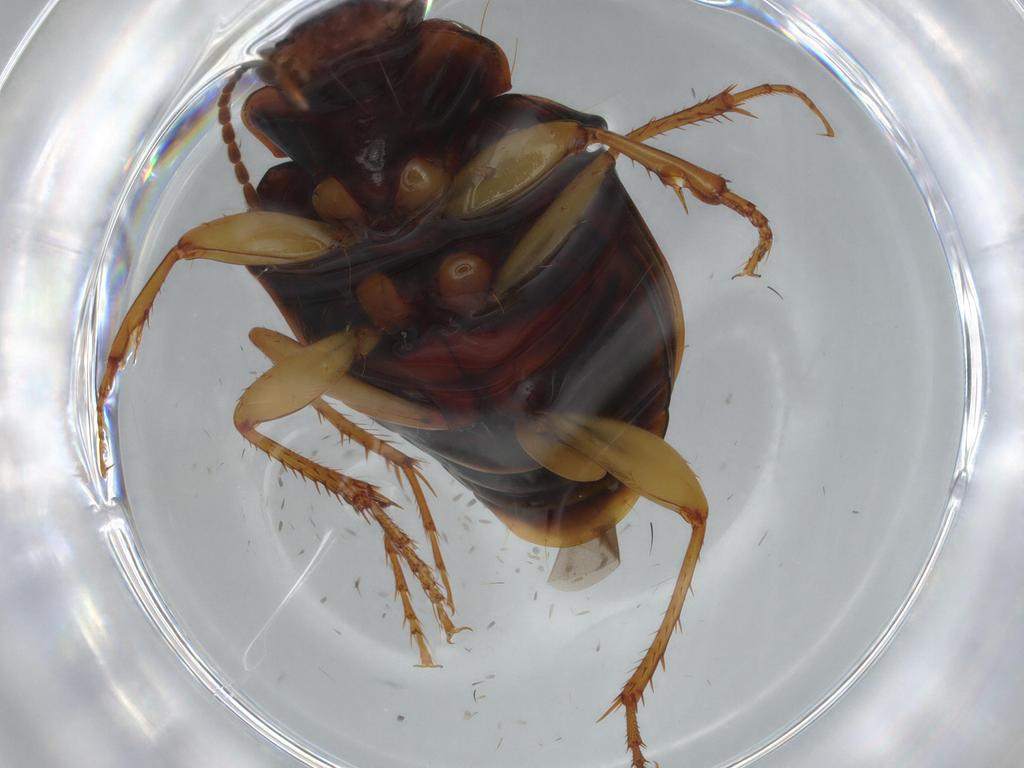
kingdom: Animalia
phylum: Arthropoda
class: Insecta
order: Coleoptera
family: Carabidae
